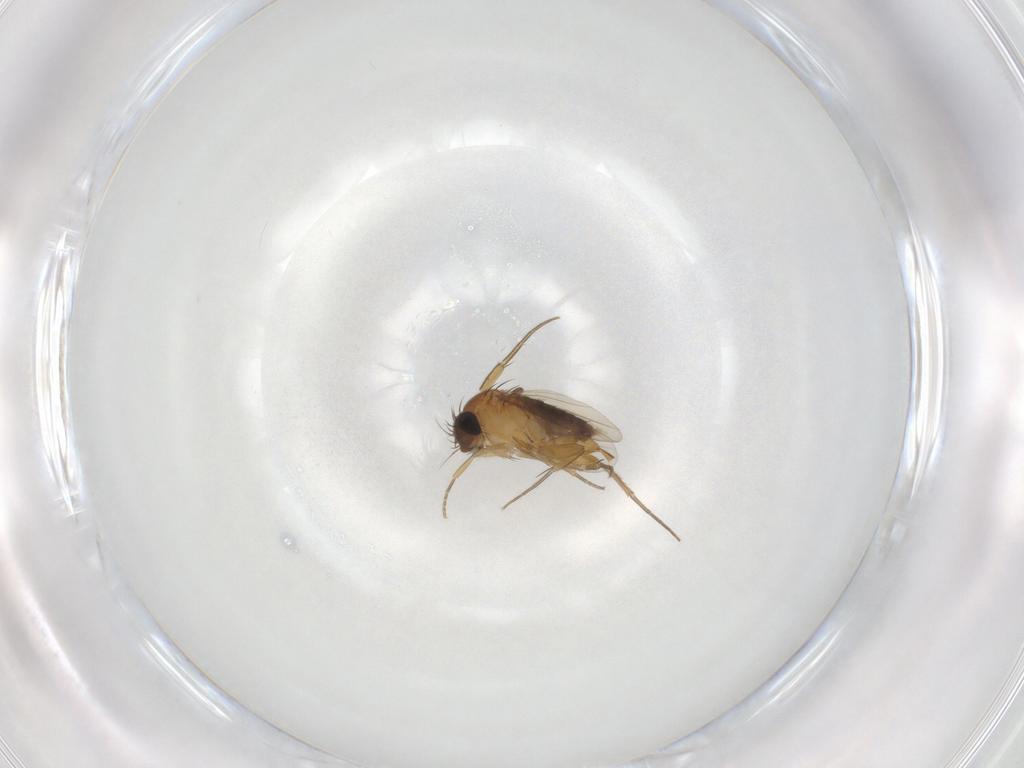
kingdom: Animalia
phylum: Arthropoda
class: Insecta
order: Diptera
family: Phoridae
